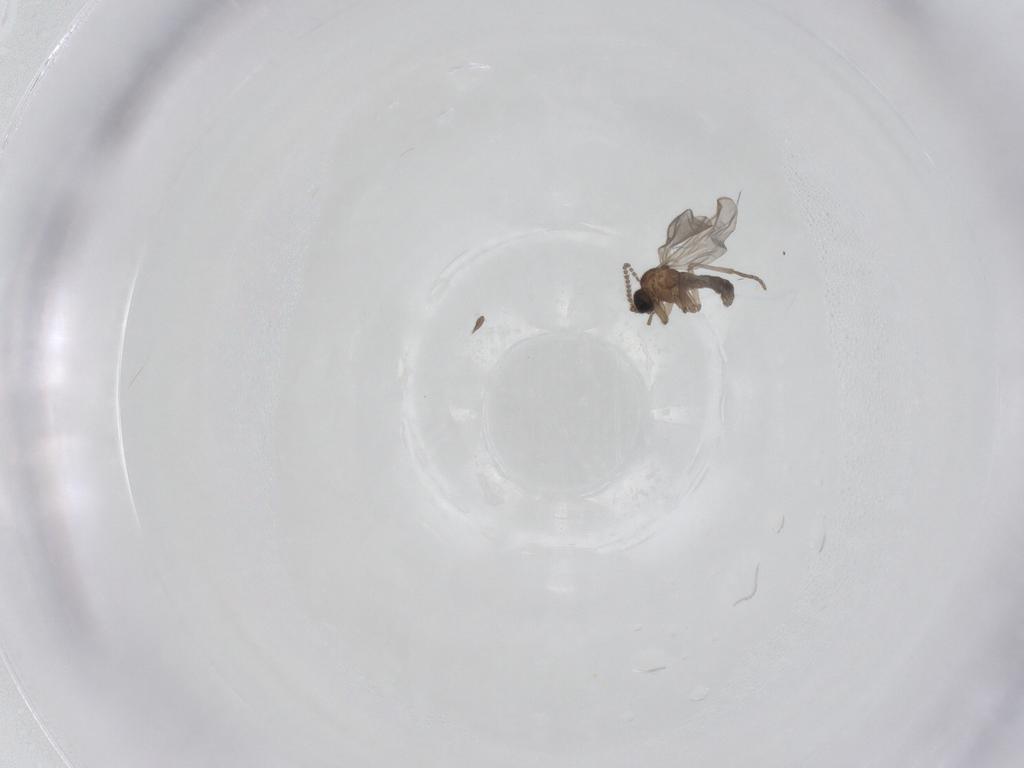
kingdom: Animalia
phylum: Arthropoda
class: Insecta
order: Diptera
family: Sciaridae
